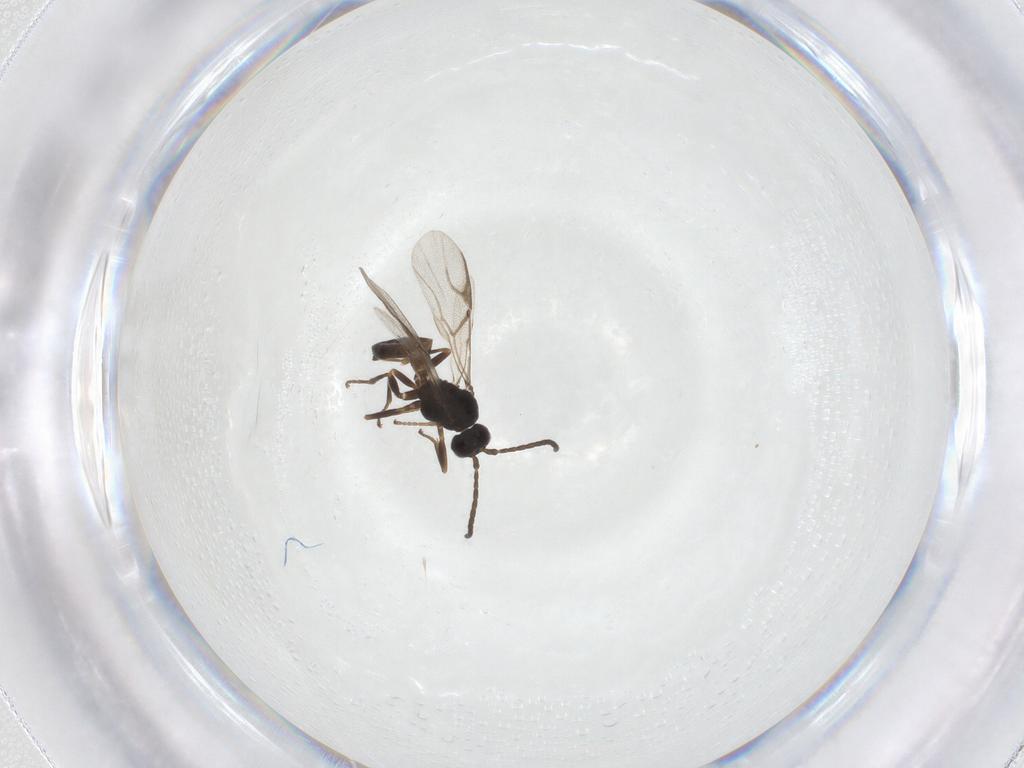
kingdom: Animalia
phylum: Arthropoda
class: Insecta
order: Hymenoptera
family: Braconidae
